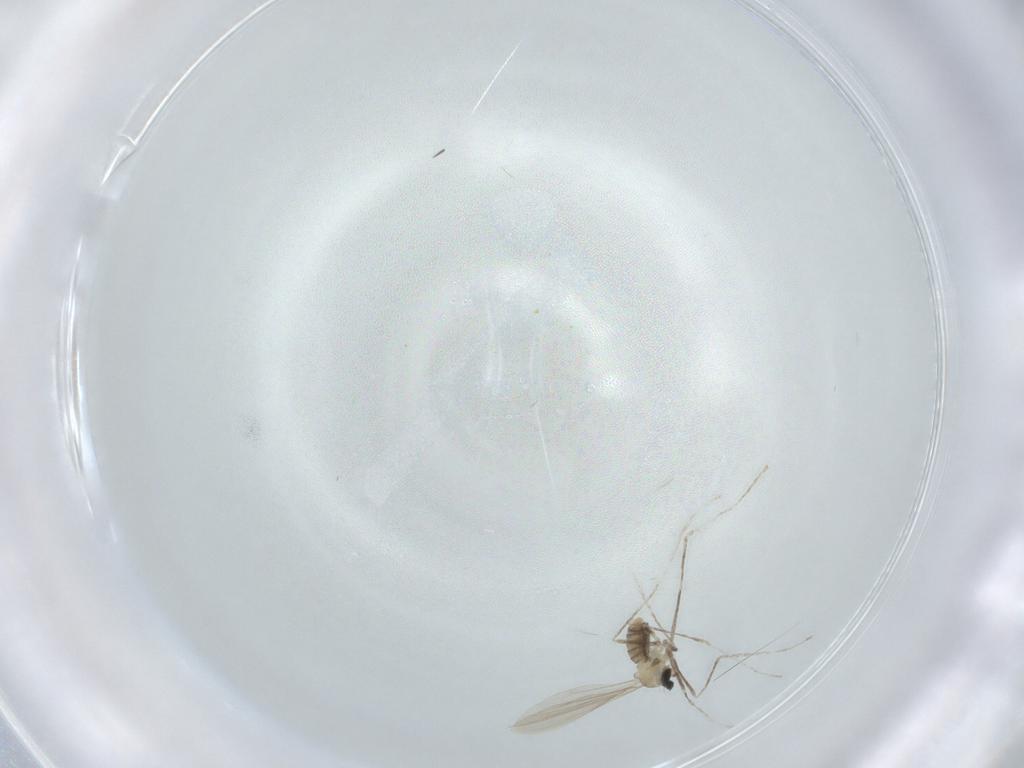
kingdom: Animalia
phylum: Arthropoda
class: Insecta
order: Diptera
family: Cecidomyiidae
